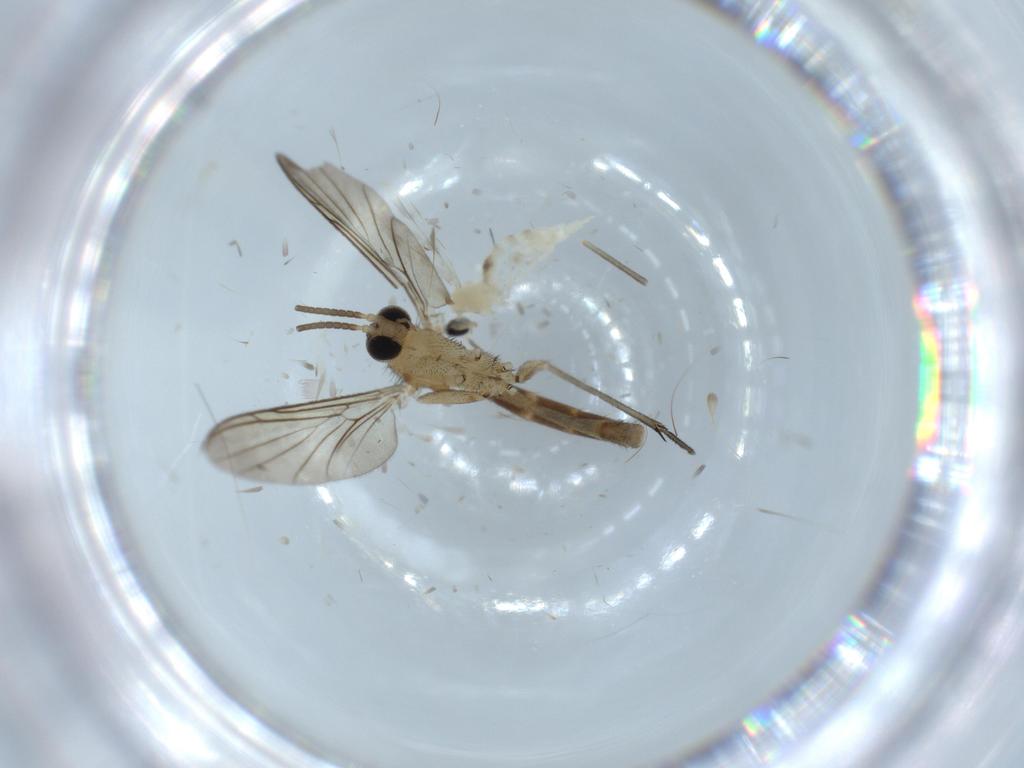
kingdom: Animalia
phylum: Arthropoda
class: Insecta
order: Diptera
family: Keroplatidae
